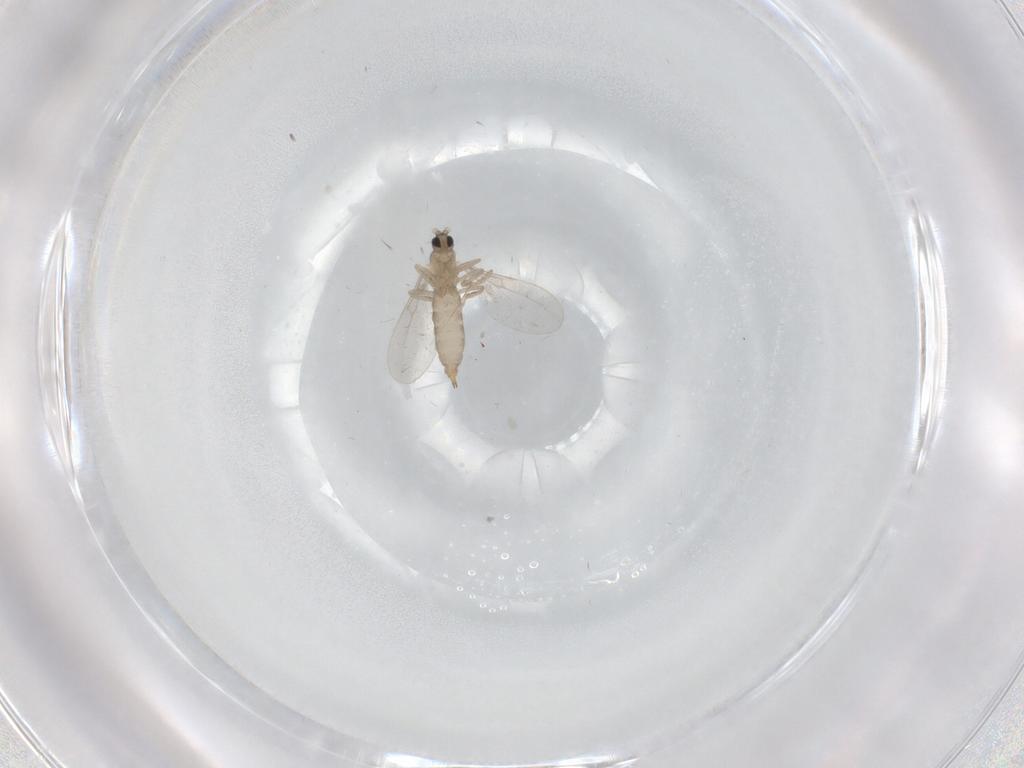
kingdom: Animalia
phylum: Arthropoda
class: Insecta
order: Diptera
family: Cecidomyiidae
